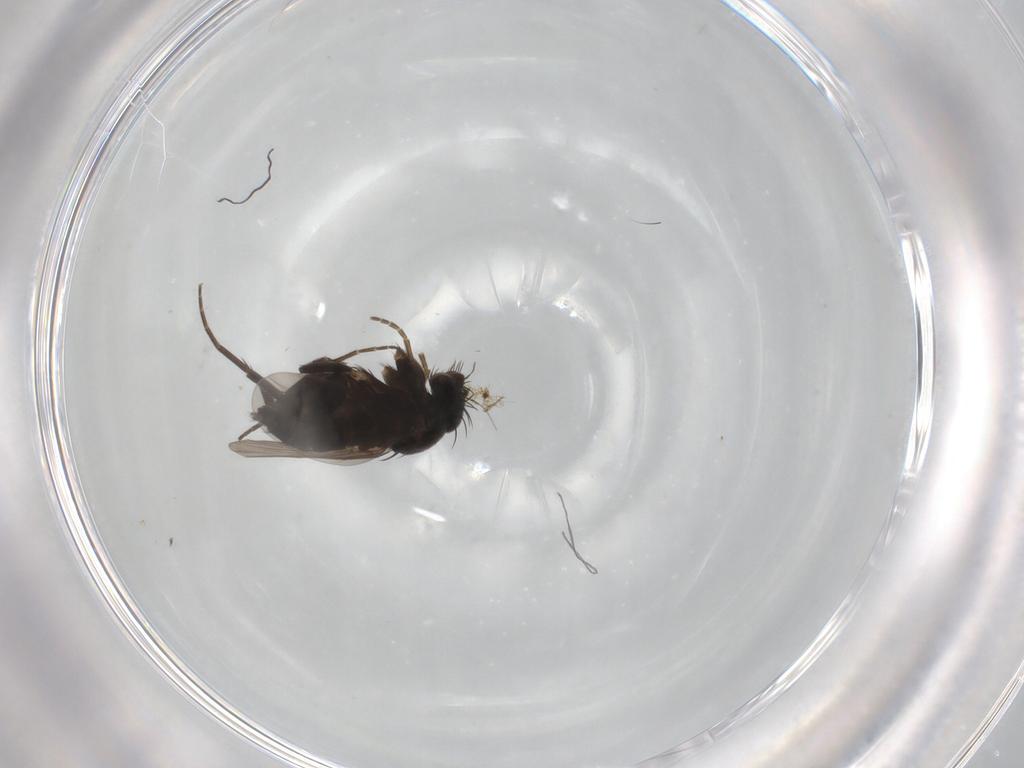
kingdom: Animalia
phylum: Arthropoda
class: Insecta
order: Diptera
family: Phoridae
